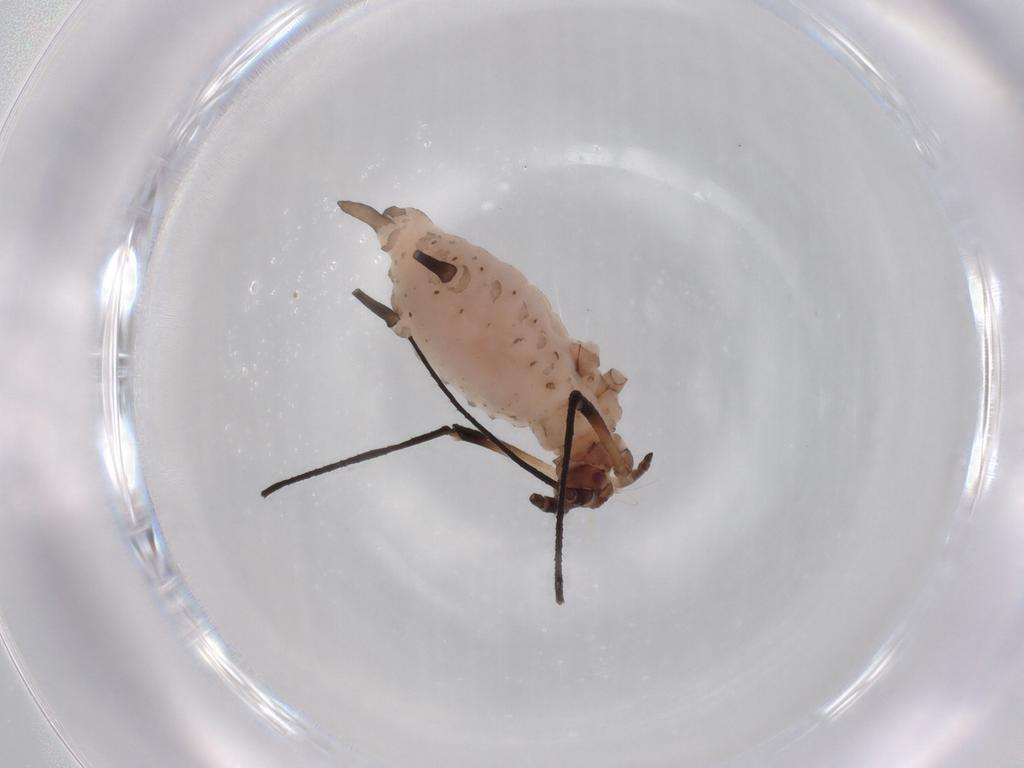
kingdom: Animalia
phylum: Arthropoda
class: Insecta
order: Hemiptera
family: Aphididae
